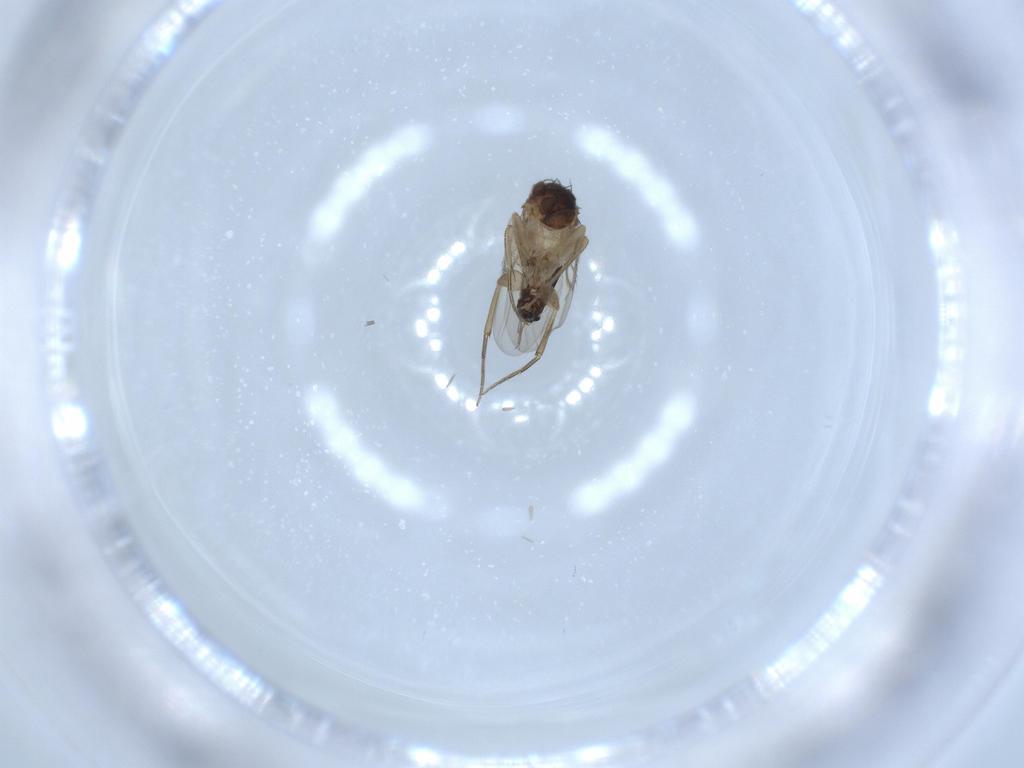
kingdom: Animalia
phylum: Arthropoda
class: Insecta
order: Diptera
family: Phoridae
